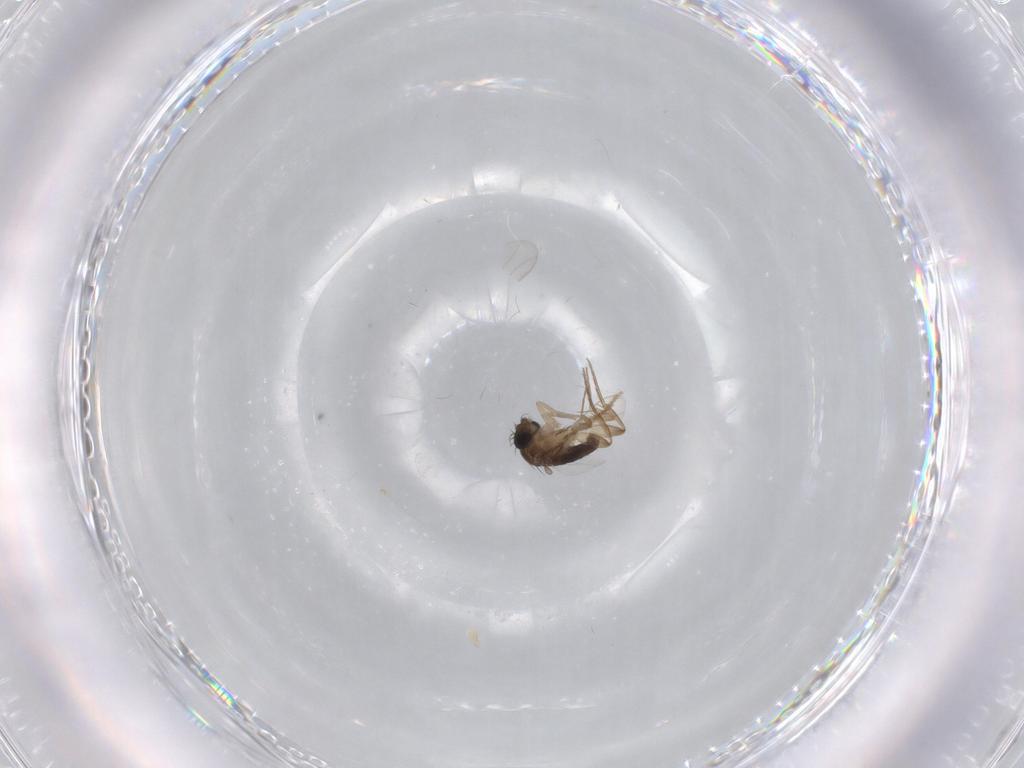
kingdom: Animalia
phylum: Arthropoda
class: Insecta
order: Diptera
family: Phoridae
